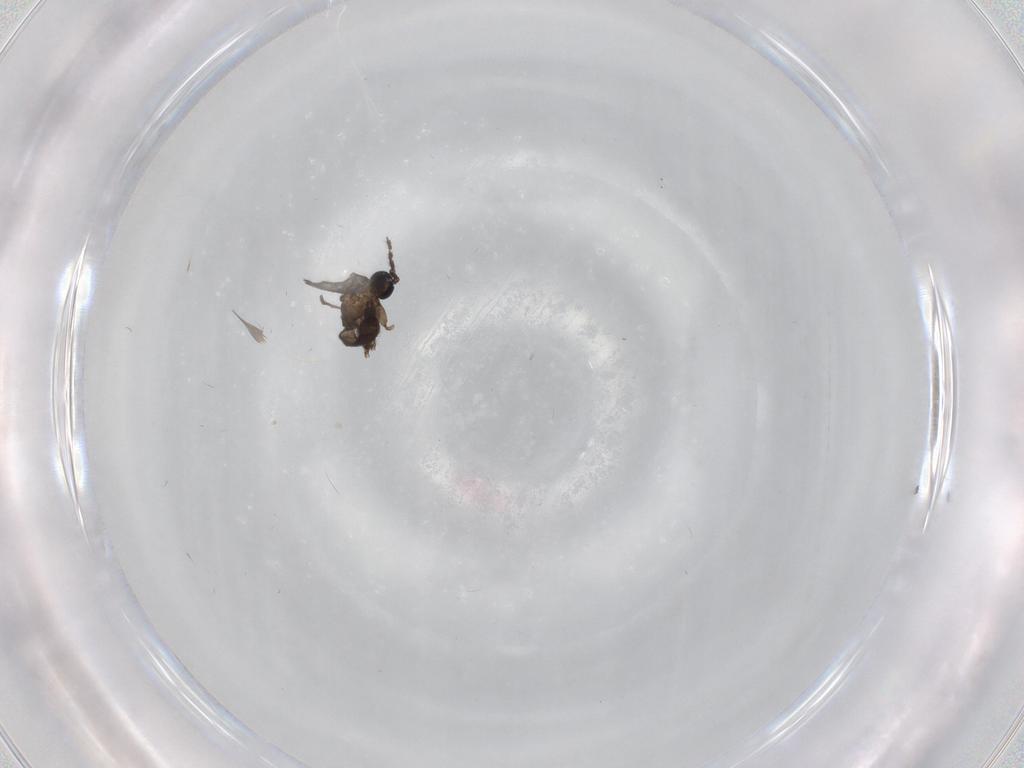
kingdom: Animalia
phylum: Arthropoda
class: Insecta
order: Diptera
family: Sciaridae
